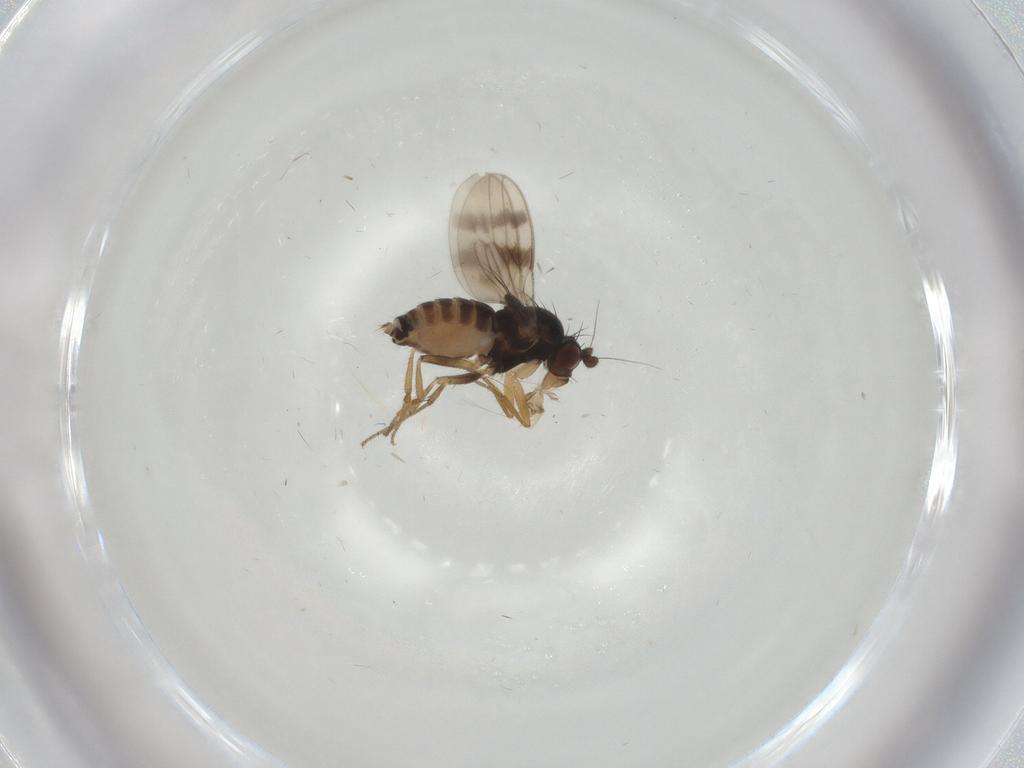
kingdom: Animalia
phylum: Arthropoda
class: Insecta
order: Diptera
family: Sphaeroceridae
